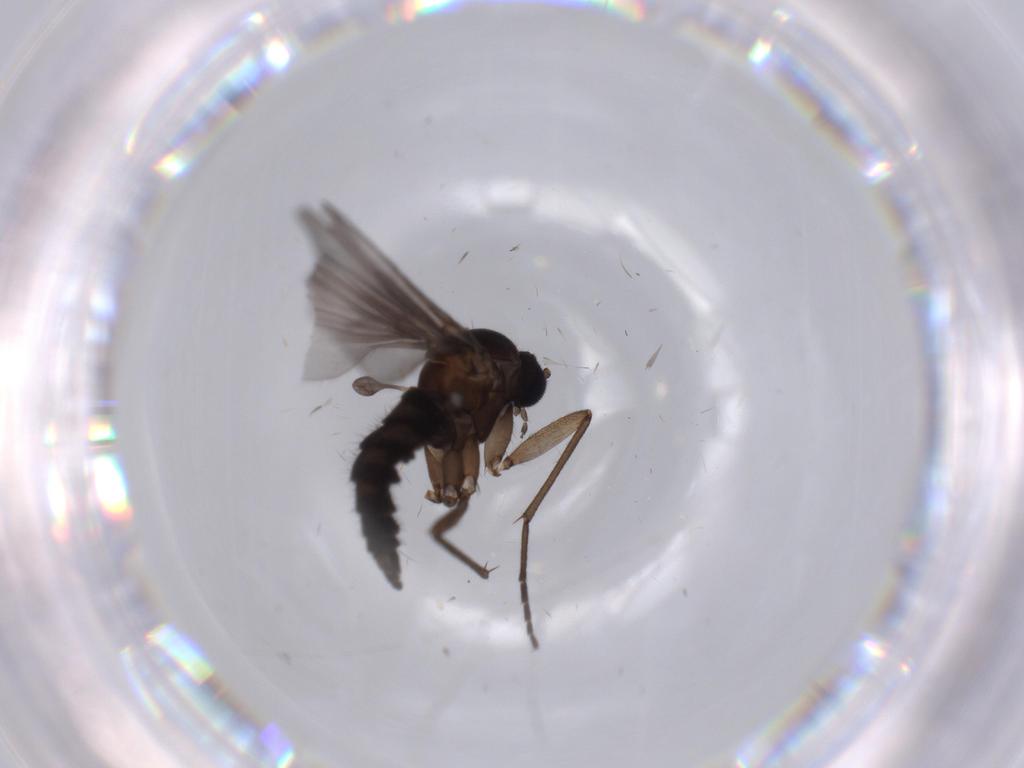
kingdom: Animalia
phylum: Arthropoda
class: Insecta
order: Diptera
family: Sciaridae
